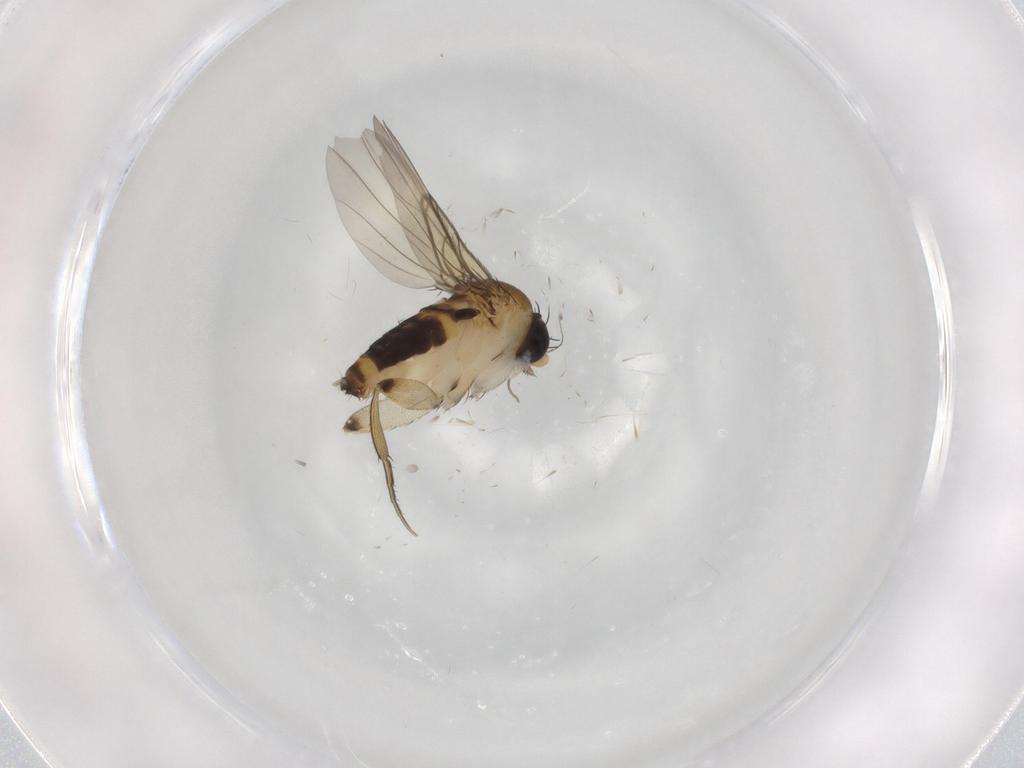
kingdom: Animalia
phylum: Arthropoda
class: Insecta
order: Diptera
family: Phoridae
